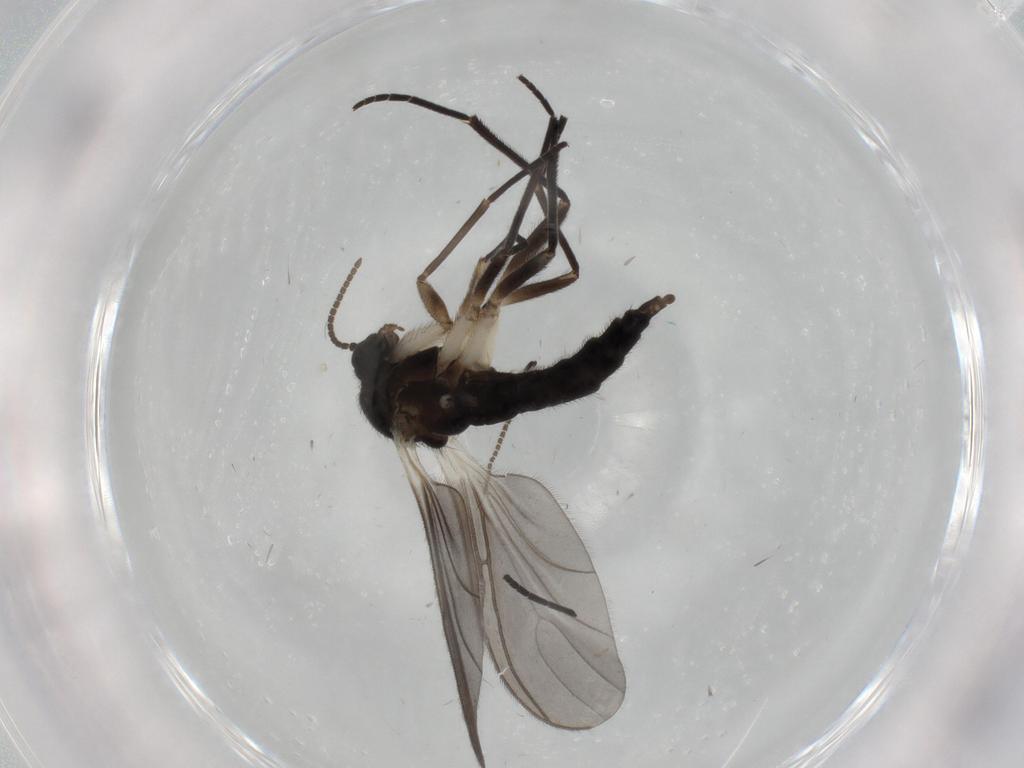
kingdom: Animalia
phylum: Arthropoda
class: Insecta
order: Diptera
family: Sciaridae
